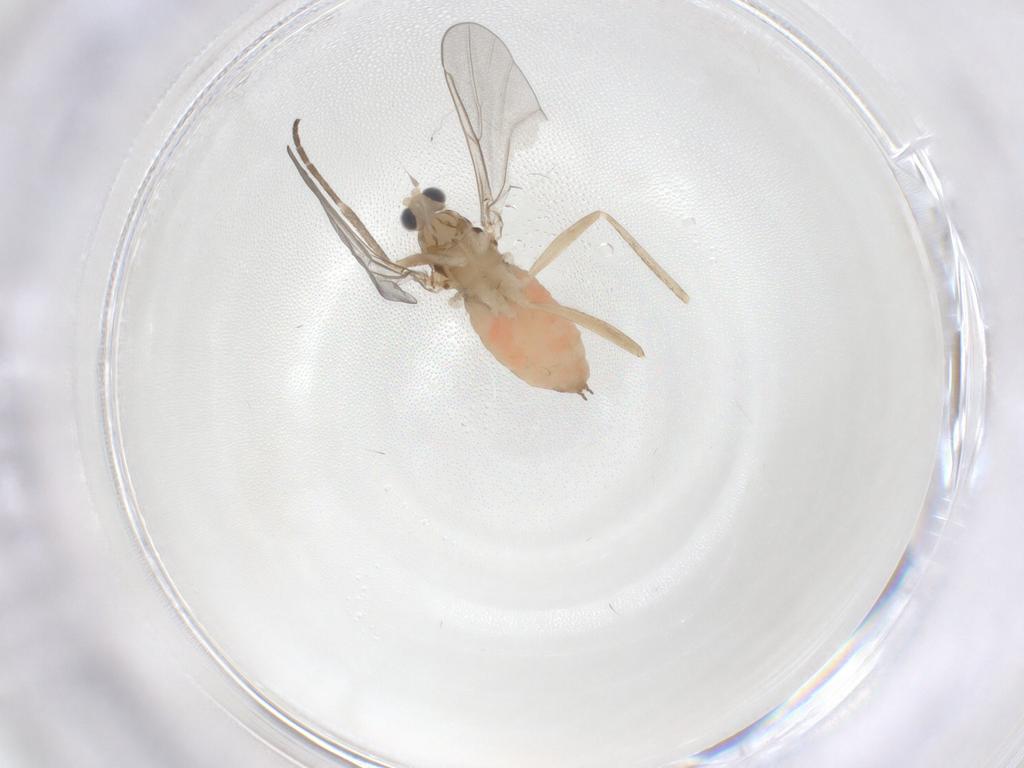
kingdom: Animalia
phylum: Arthropoda
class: Insecta
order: Diptera
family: Cecidomyiidae
